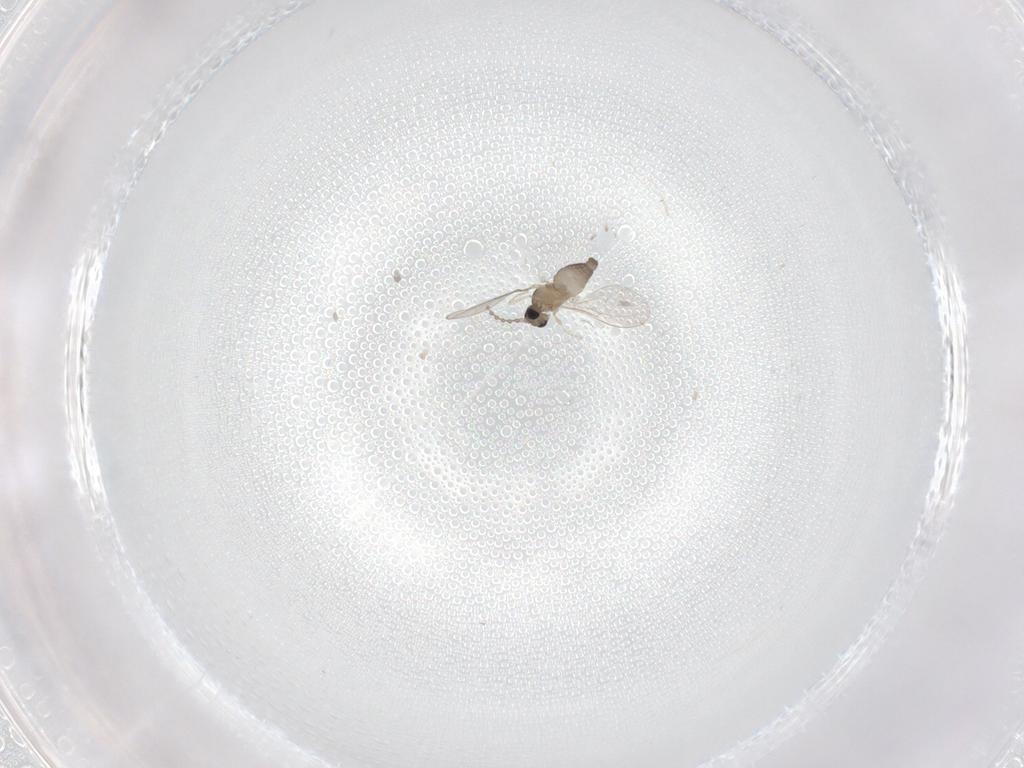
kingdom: Animalia
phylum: Arthropoda
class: Insecta
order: Diptera
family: Cecidomyiidae
